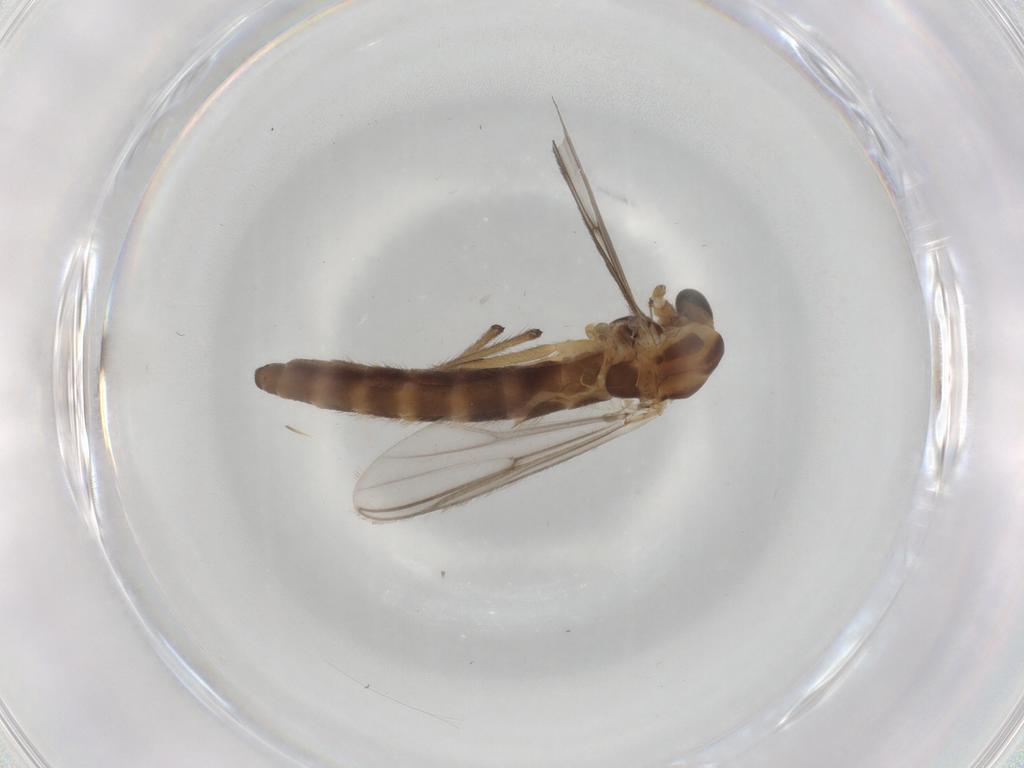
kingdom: Animalia
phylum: Arthropoda
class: Insecta
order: Diptera
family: Chironomidae
